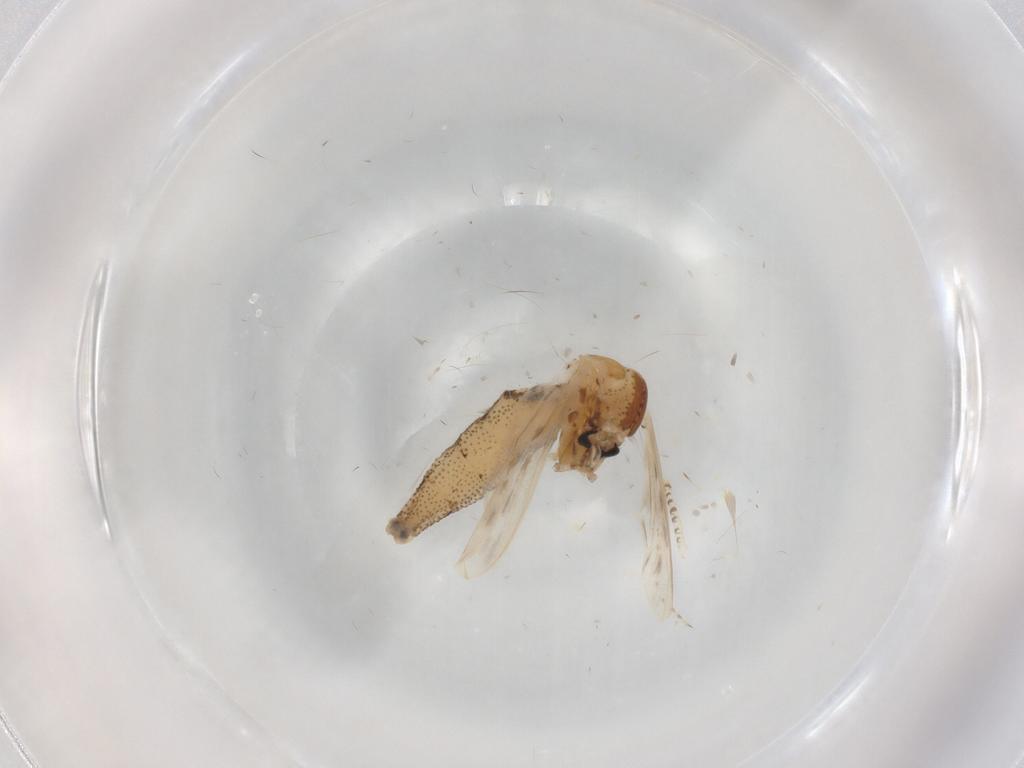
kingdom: Animalia
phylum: Arthropoda
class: Insecta
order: Diptera
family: Chaoboridae
